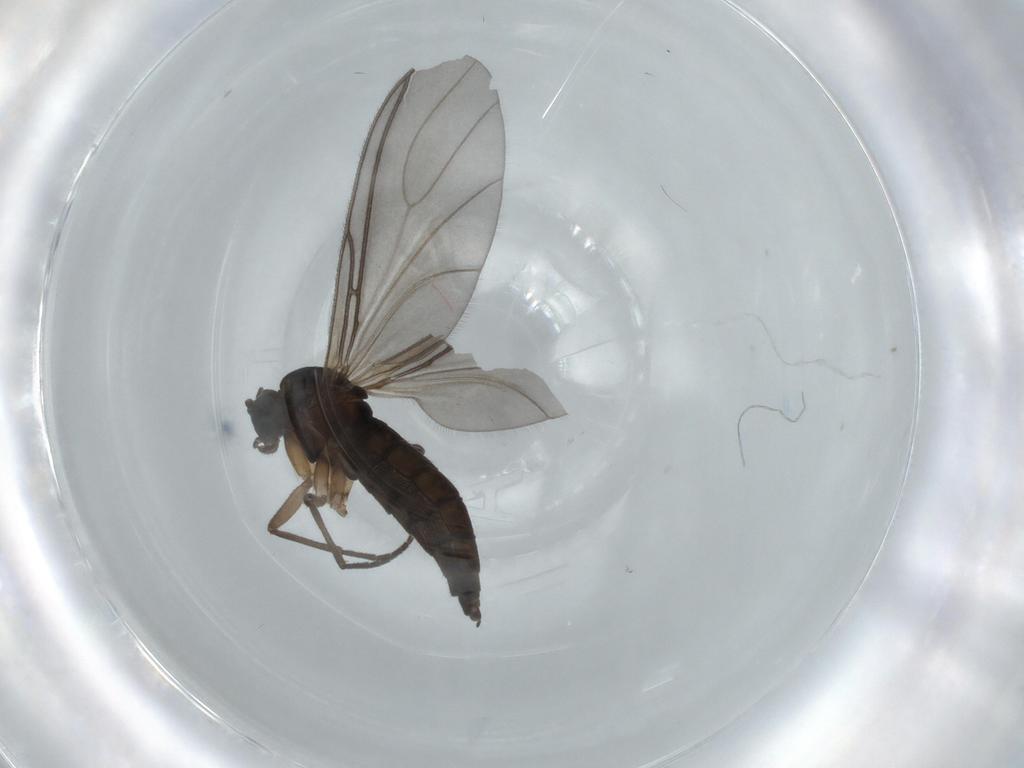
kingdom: Animalia
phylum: Arthropoda
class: Insecta
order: Diptera
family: Sciaridae
